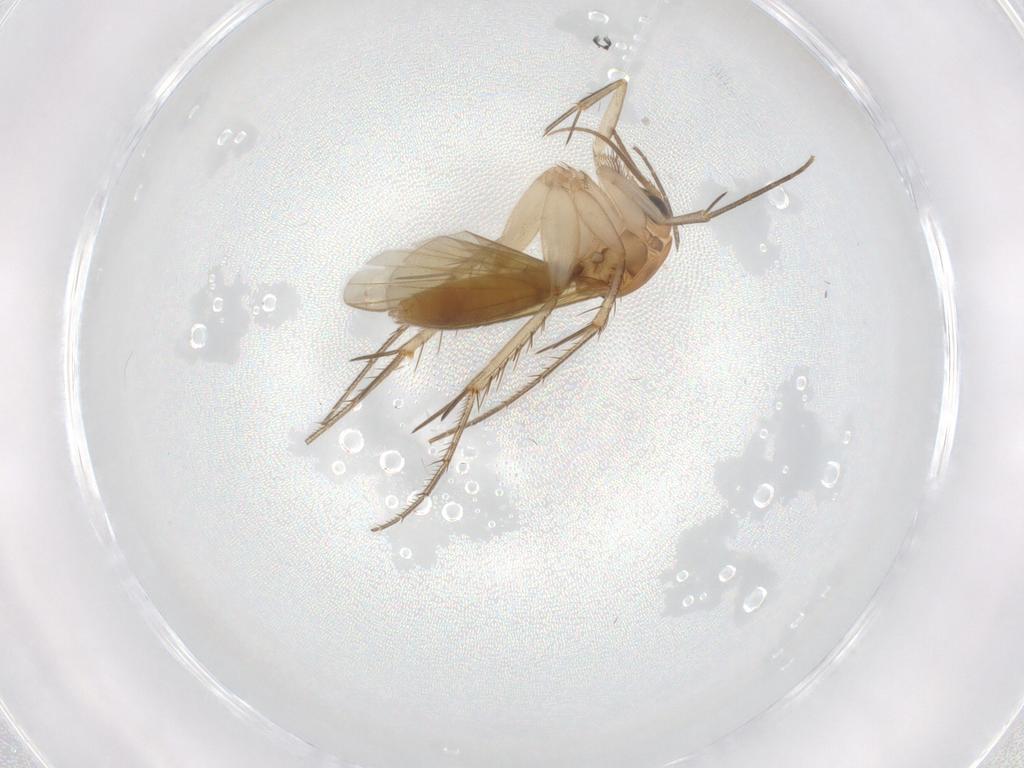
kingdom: Animalia
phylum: Arthropoda
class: Insecta
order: Diptera
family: Mycetophilidae
